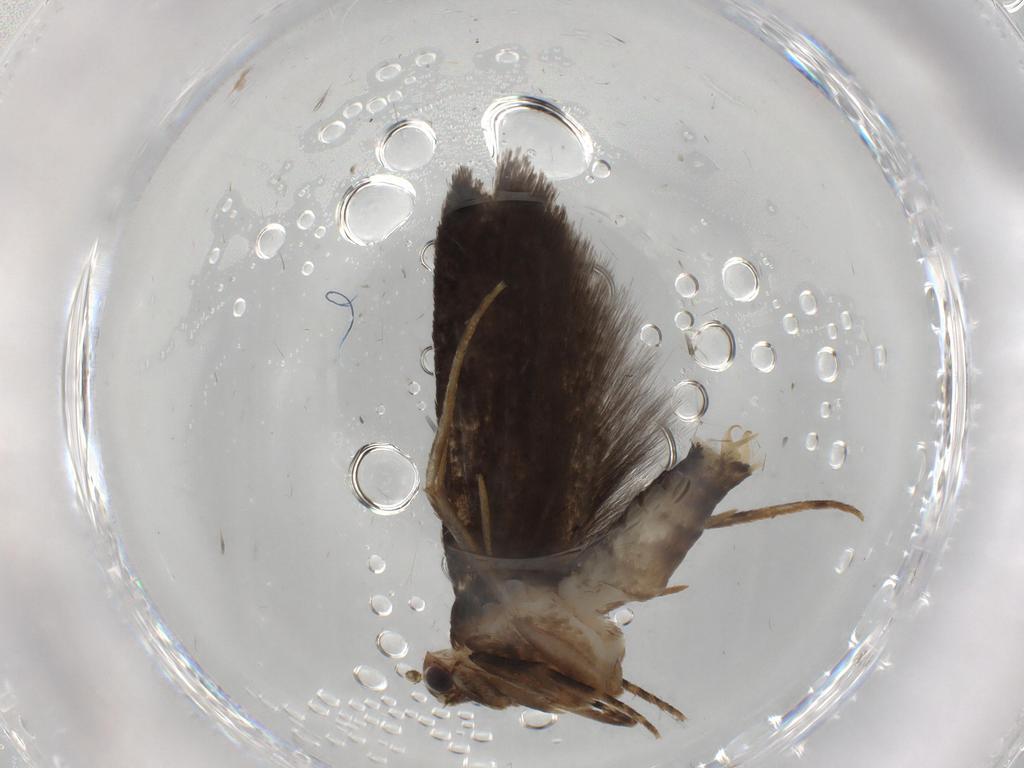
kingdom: Animalia
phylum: Arthropoda
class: Insecta
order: Lepidoptera
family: Tineidae
